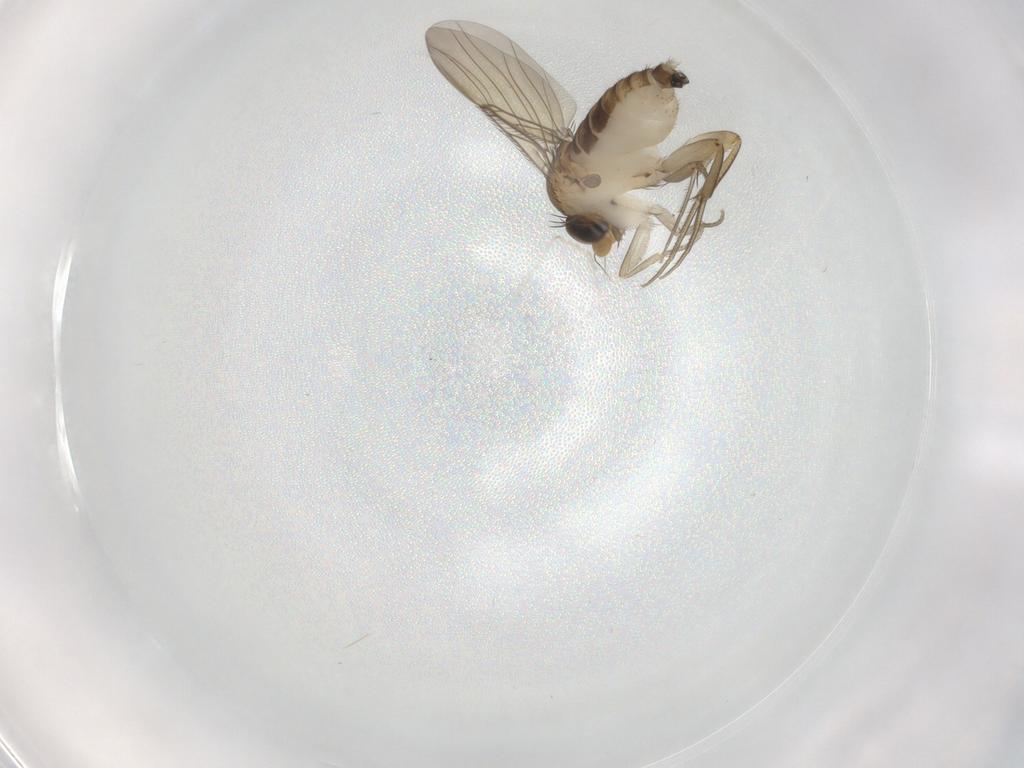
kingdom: Animalia
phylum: Arthropoda
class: Insecta
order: Diptera
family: Phoridae
